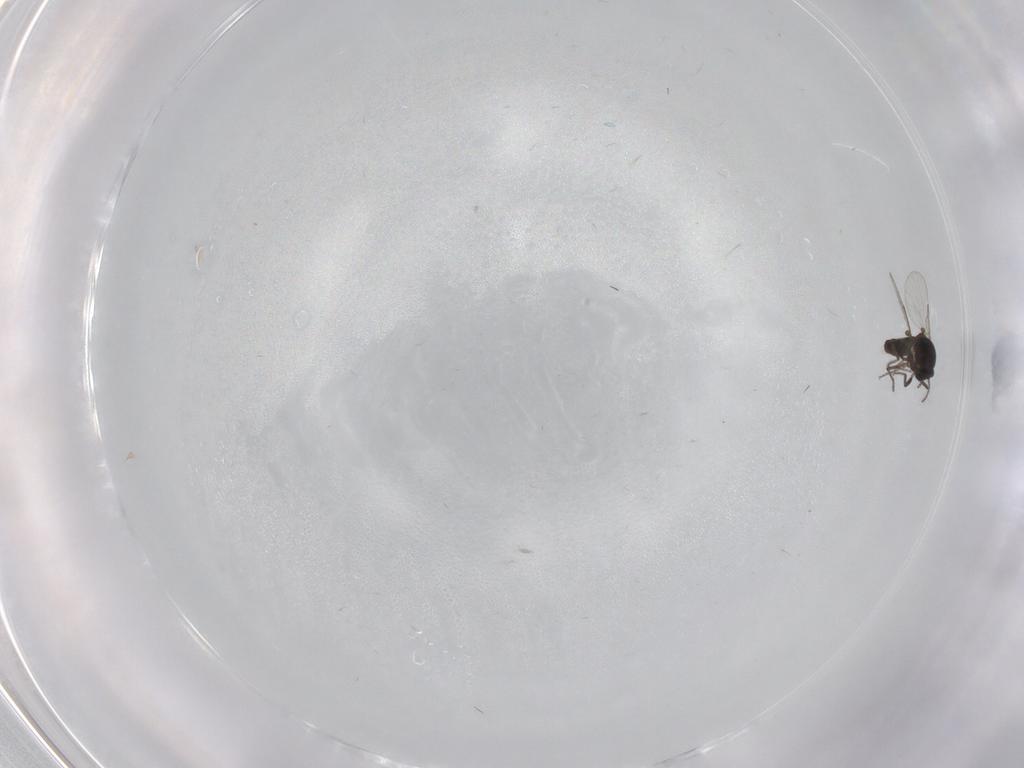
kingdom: Animalia
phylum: Arthropoda
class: Insecta
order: Diptera
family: Ceratopogonidae
